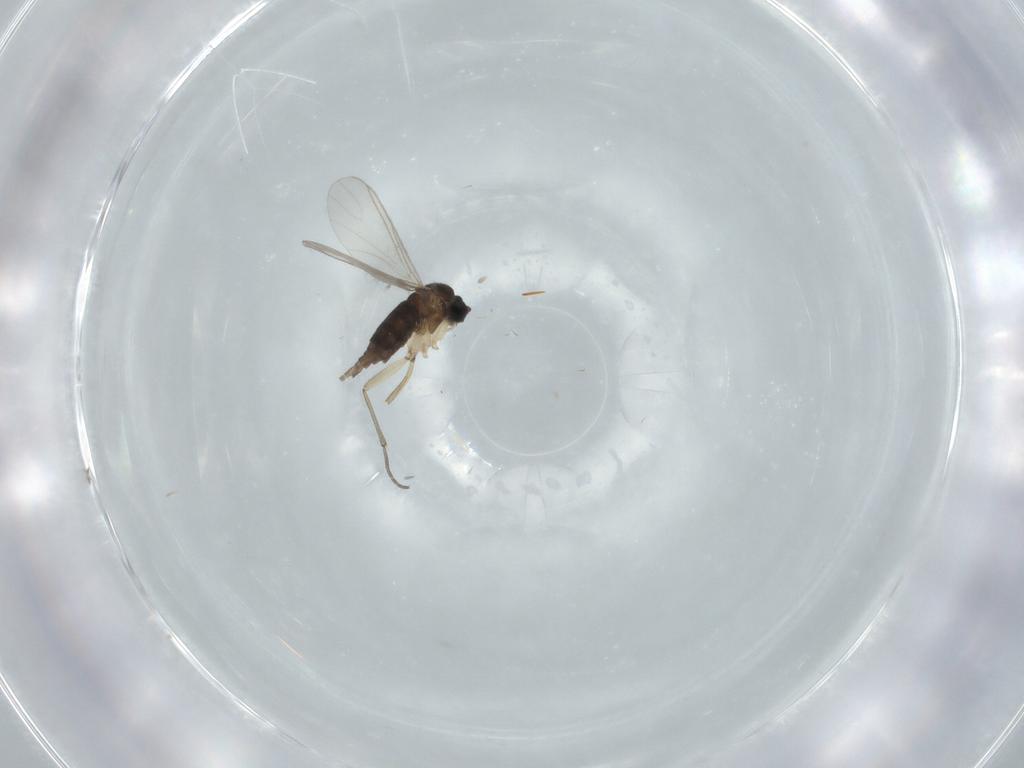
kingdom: Animalia
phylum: Arthropoda
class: Insecta
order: Diptera
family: Sciaridae
